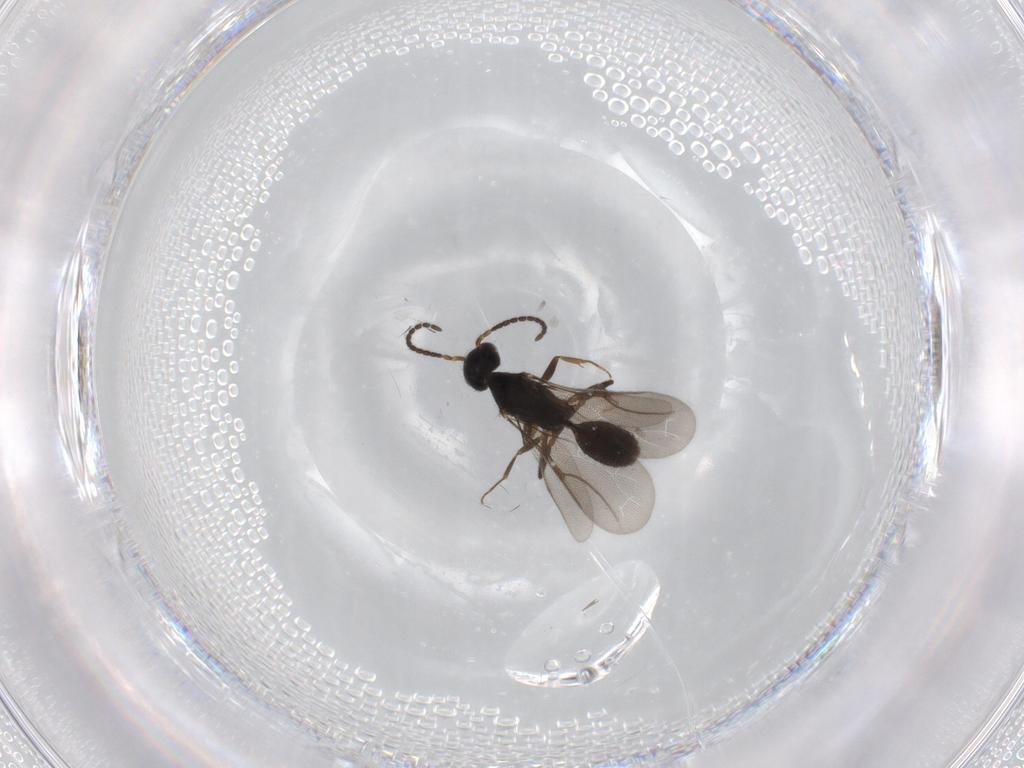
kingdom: Animalia
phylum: Arthropoda
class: Insecta
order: Hymenoptera
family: Bethylidae
